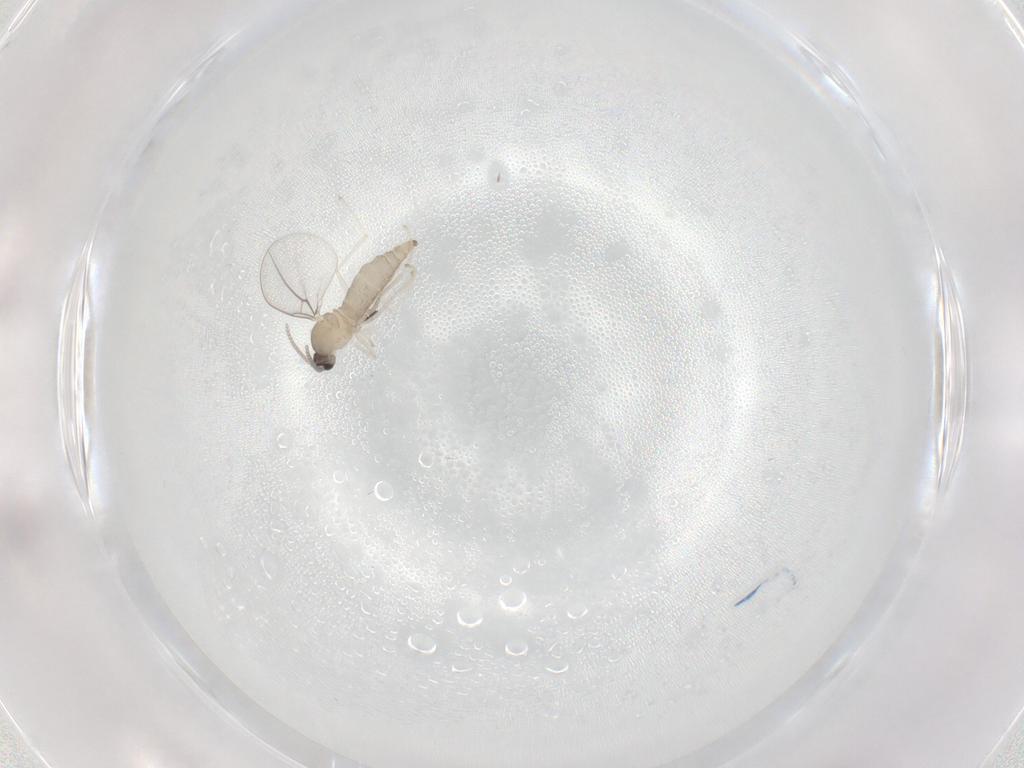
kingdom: Animalia
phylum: Arthropoda
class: Insecta
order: Diptera
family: Cecidomyiidae
